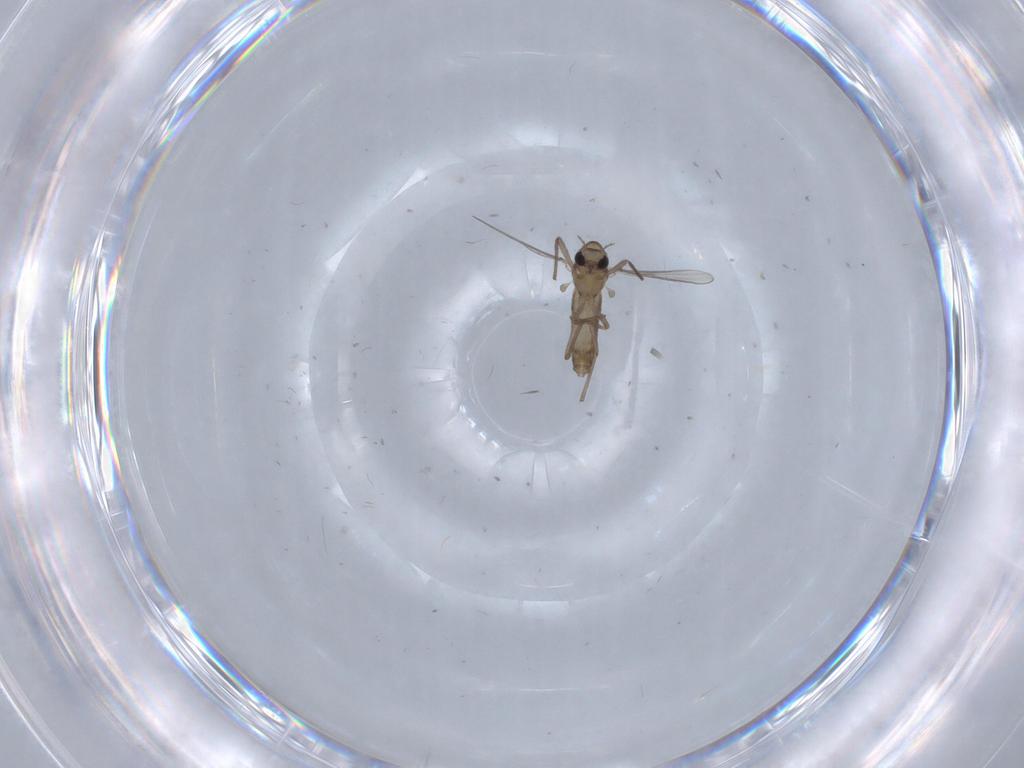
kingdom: Animalia
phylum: Arthropoda
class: Insecta
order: Diptera
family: Chironomidae
